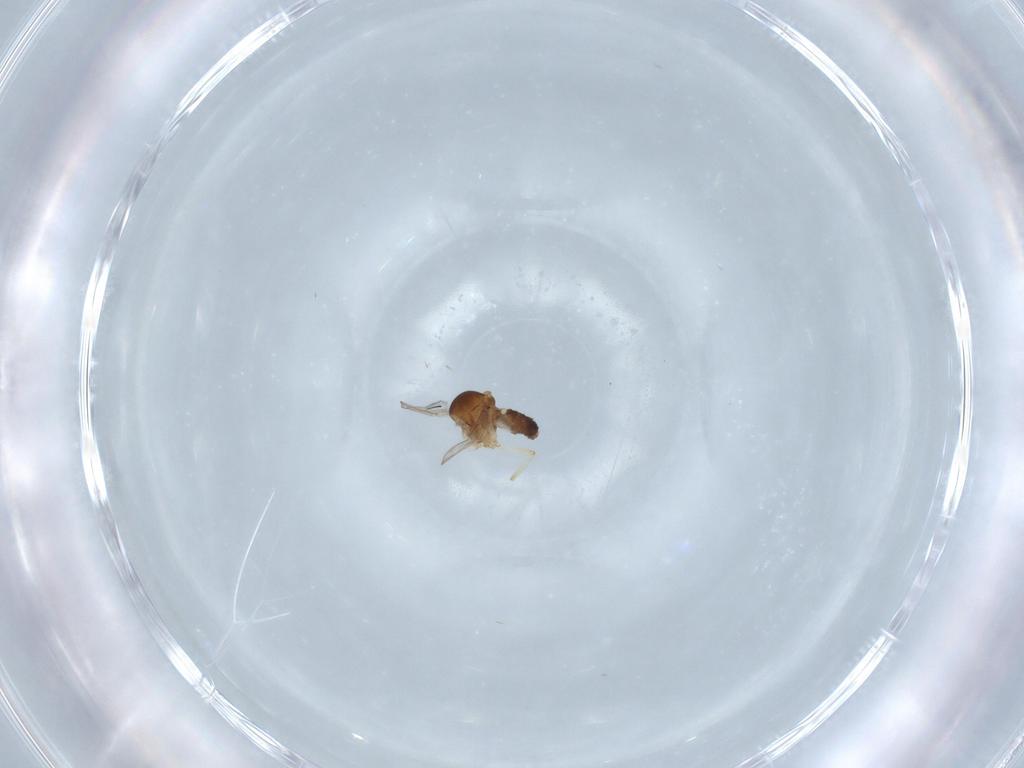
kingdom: Animalia
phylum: Arthropoda
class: Insecta
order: Diptera
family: Ceratopogonidae
